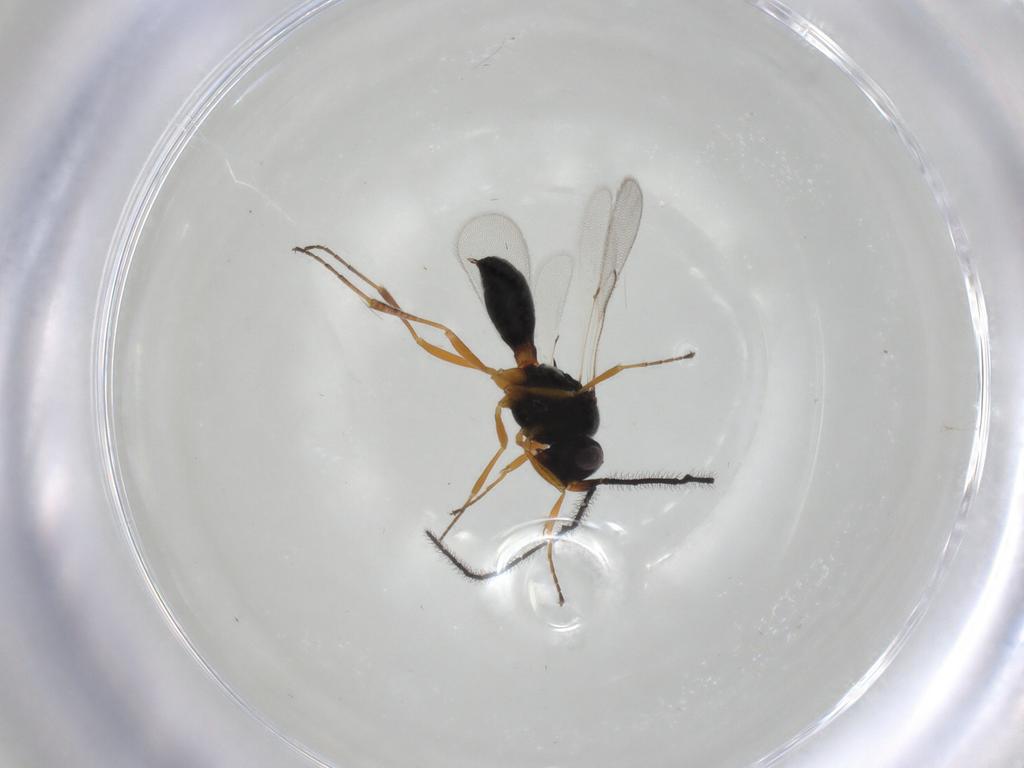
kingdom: Animalia
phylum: Arthropoda
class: Insecta
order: Hymenoptera
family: Scelionidae
